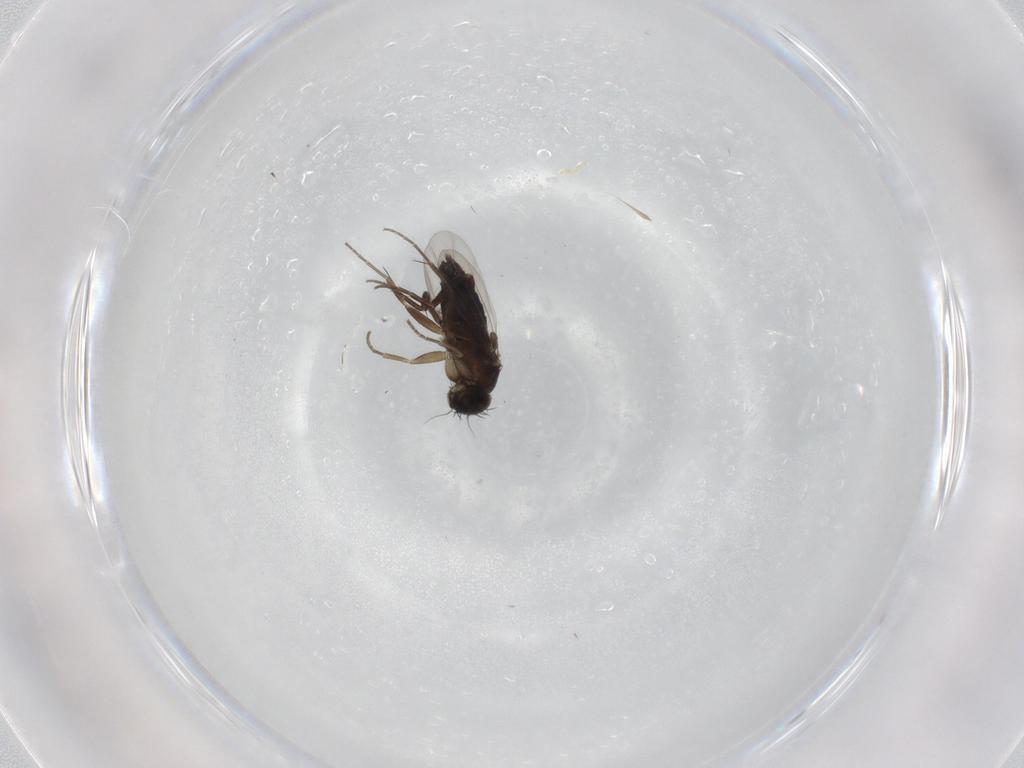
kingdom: Animalia
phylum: Arthropoda
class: Insecta
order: Diptera
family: Phoridae
